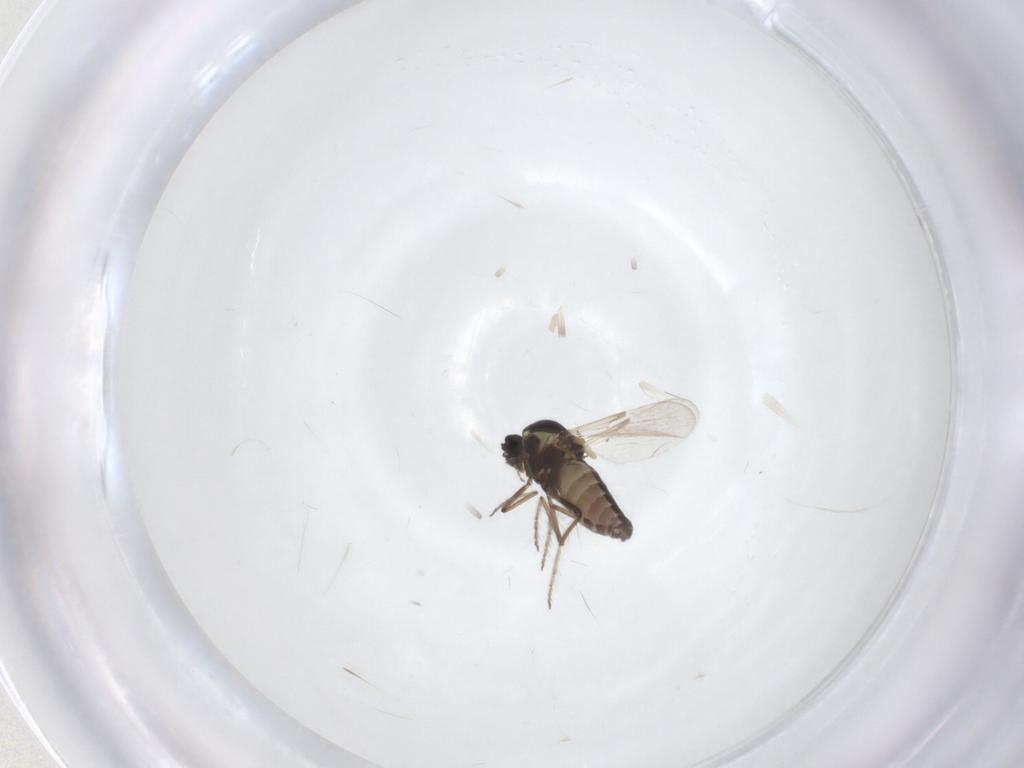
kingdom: Animalia
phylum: Arthropoda
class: Insecta
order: Diptera
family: Ceratopogonidae
